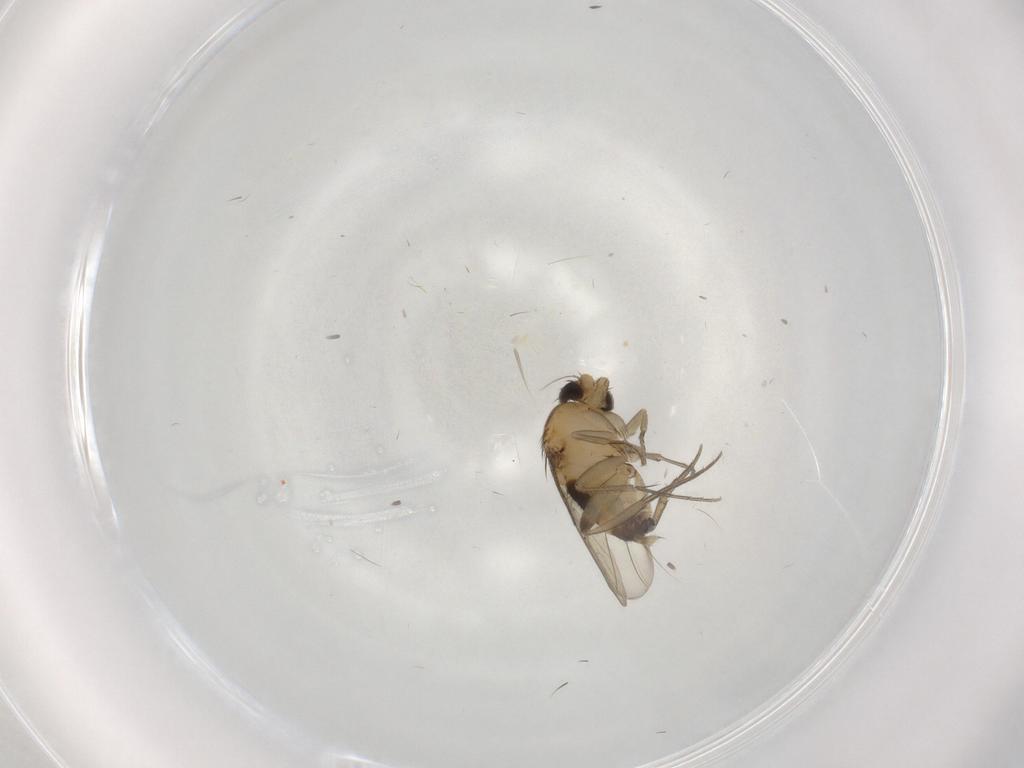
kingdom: Animalia
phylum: Arthropoda
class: Insecta
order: Diptera
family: Phoridae
